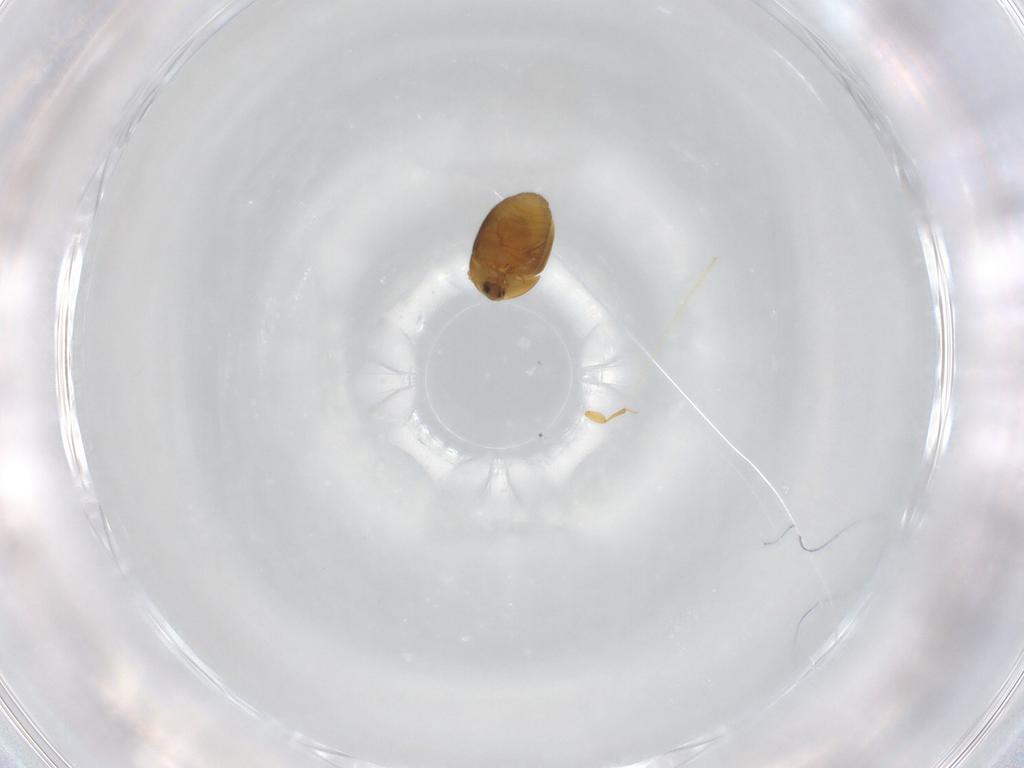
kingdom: Animalia
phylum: Arthropoda
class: Insecta
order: Coleoptera
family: Corylophidae
